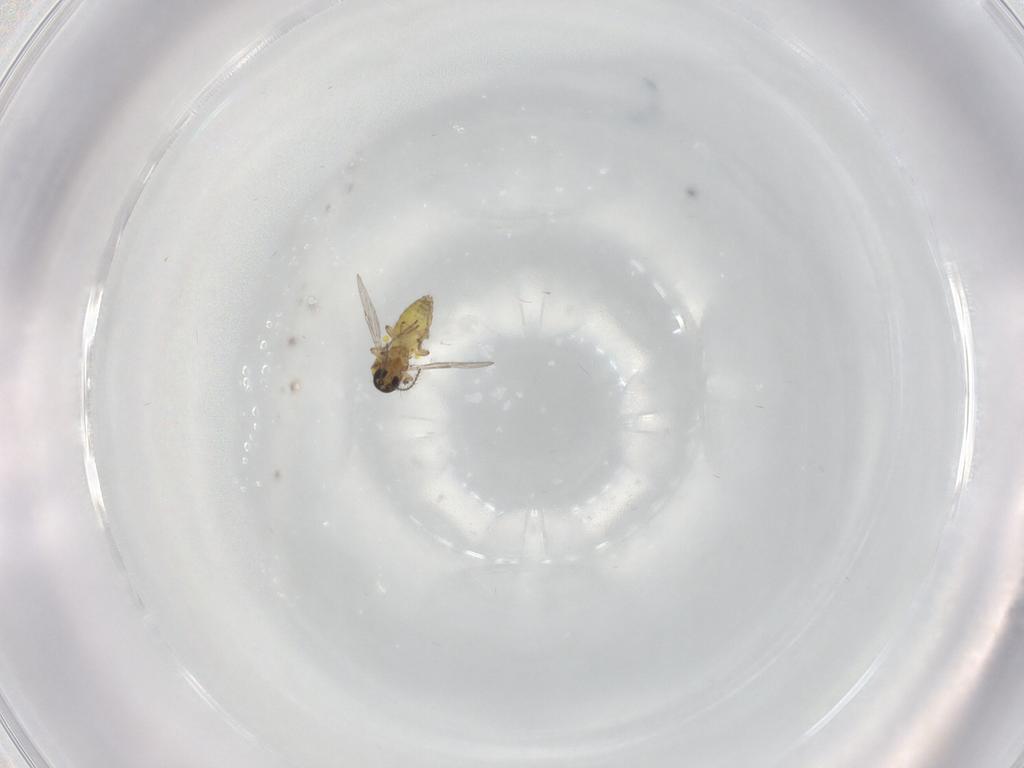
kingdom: Animalia
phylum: Arthropoda
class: Insecta
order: Diptera
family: Ceratopogonidae
